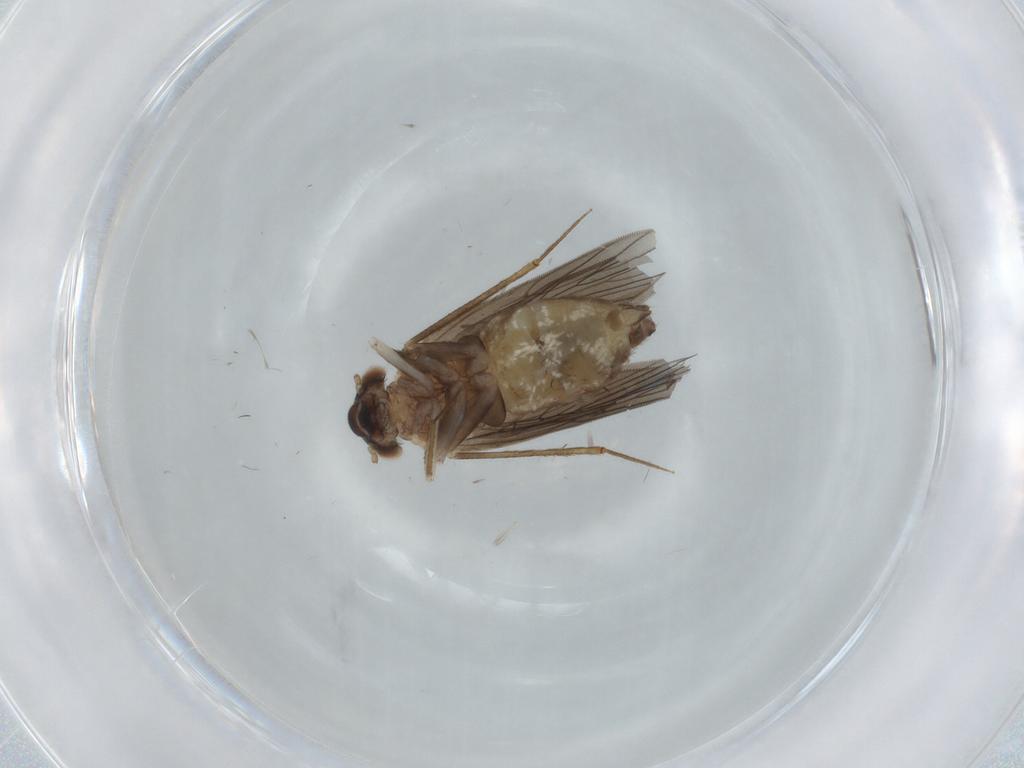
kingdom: Animalia
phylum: Arthropoda
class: Insecta
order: Psocodea
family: Lepidopsocidae
